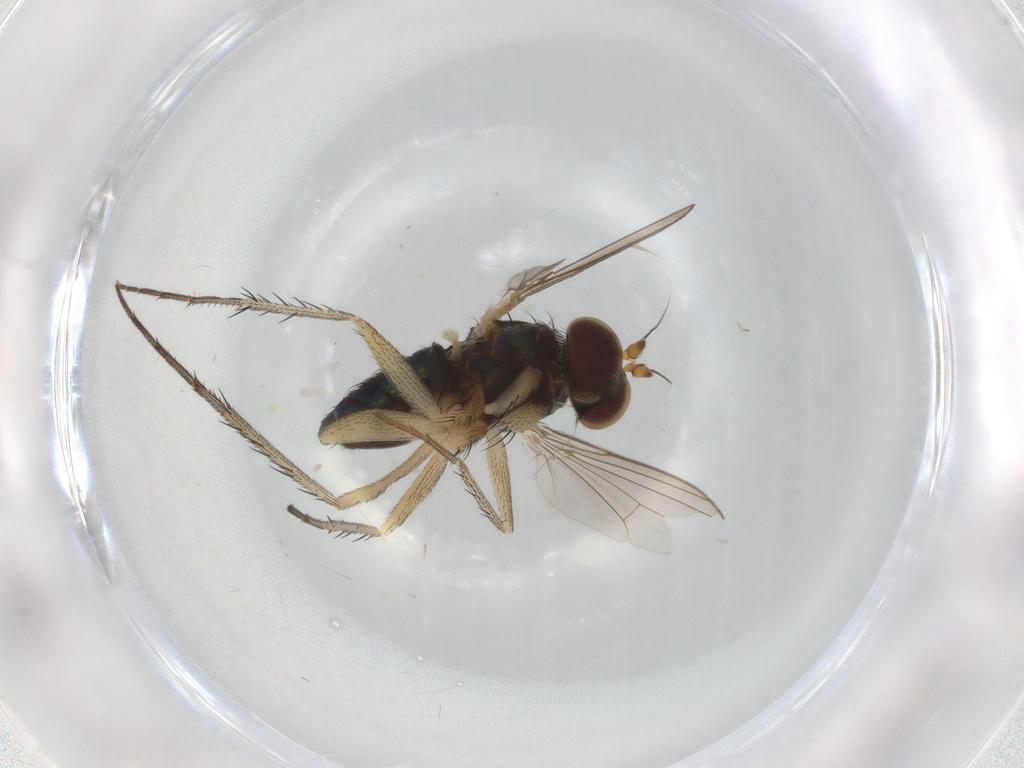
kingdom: Animalia
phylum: Arthropoda
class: Insecta
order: Diptera
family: Dolichopodidae
